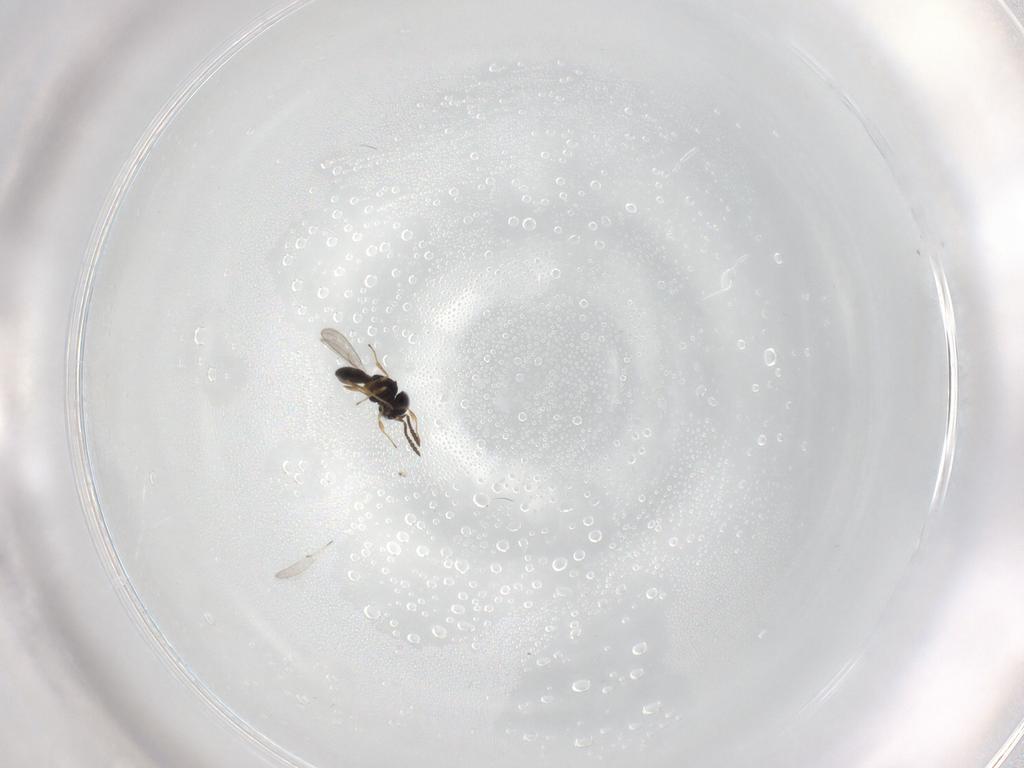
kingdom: Animalia
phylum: Arthropoda
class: Insecta
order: Hymenoptera
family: Scelionidae
